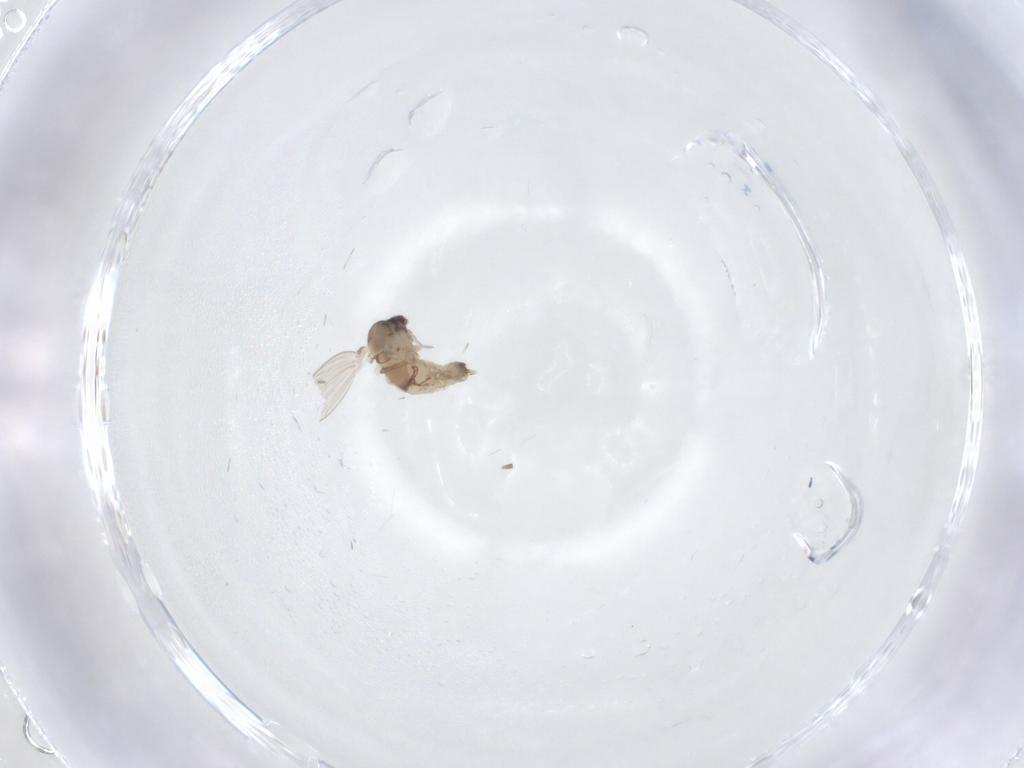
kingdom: Animalia
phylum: Arthropoda
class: Insecta
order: Diptera
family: Psychodidae
